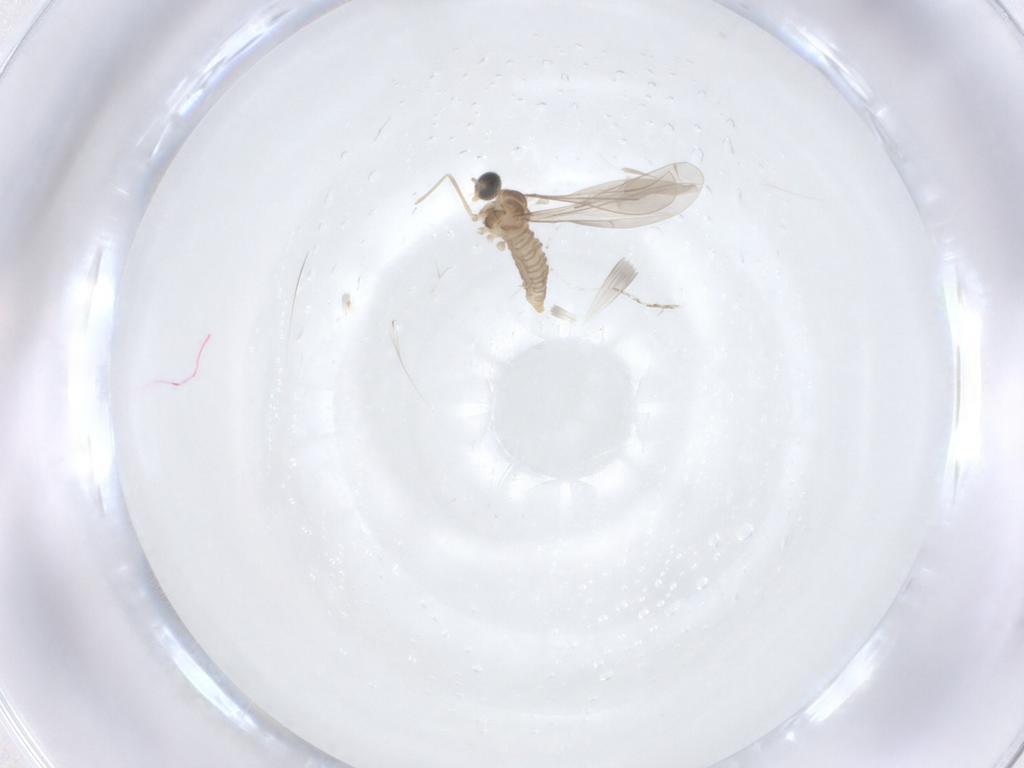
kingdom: Animalia
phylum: Arthropoda
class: Insecta
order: Diptera
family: Cecidomyiidae
